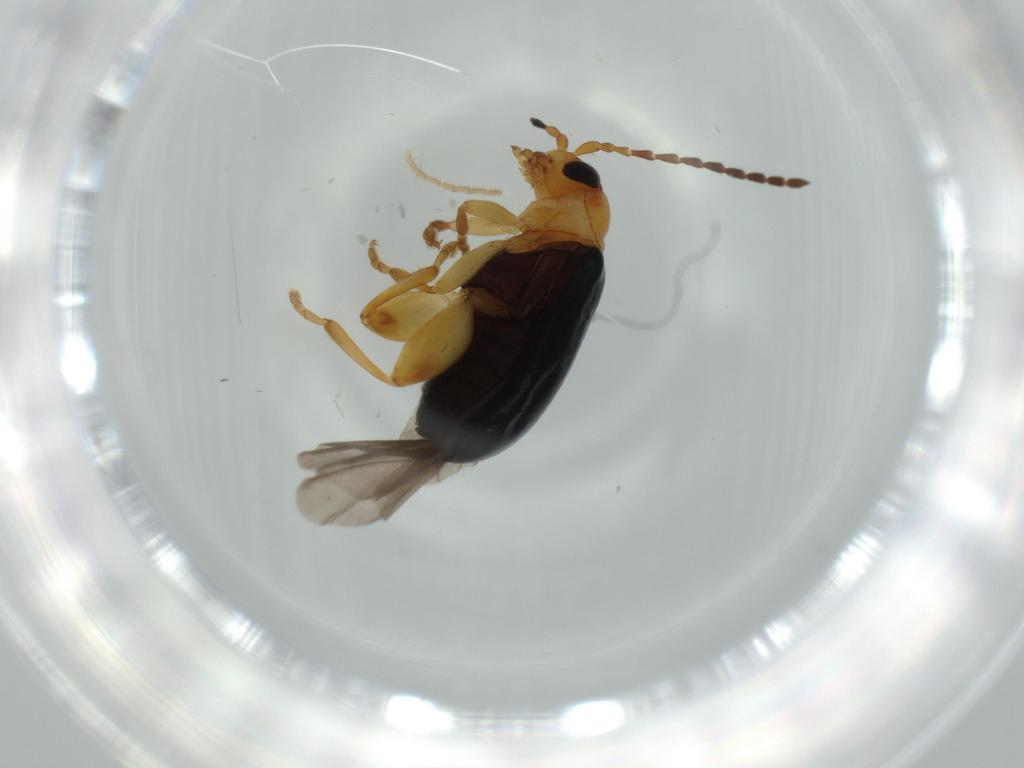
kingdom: Animalia
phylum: Arthropoda
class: Insecta
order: Coleoptera
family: Chrysomelidae
